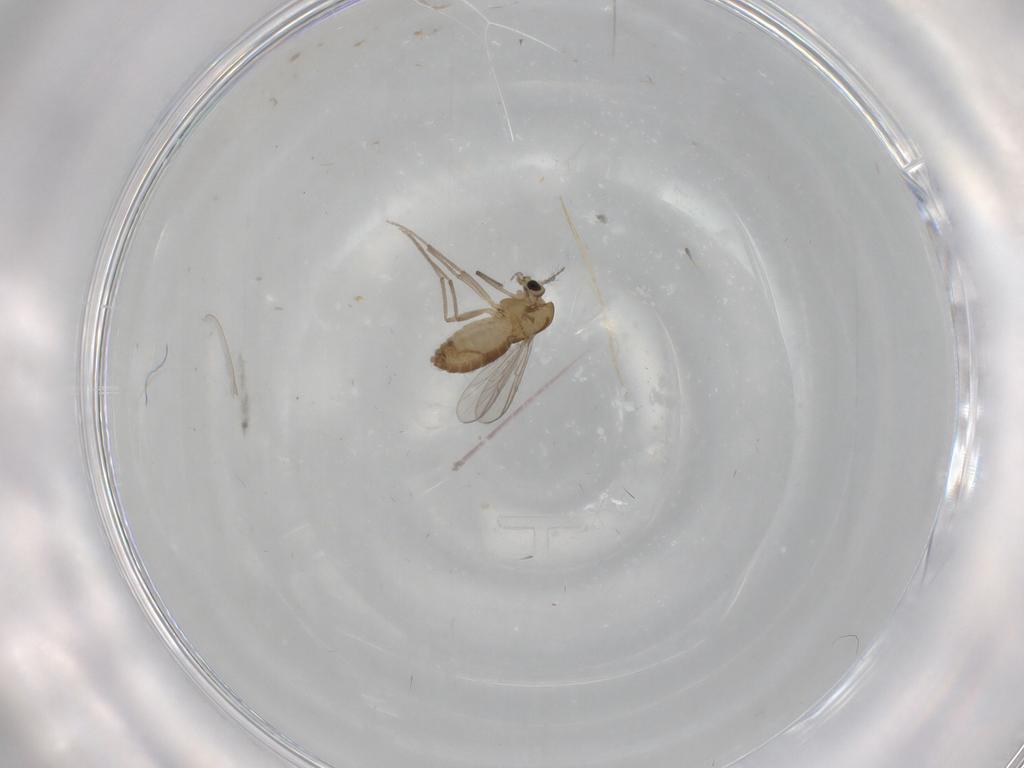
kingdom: Animalia
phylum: Arthropoda
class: Insecta
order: Diptera
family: Chironomidae
